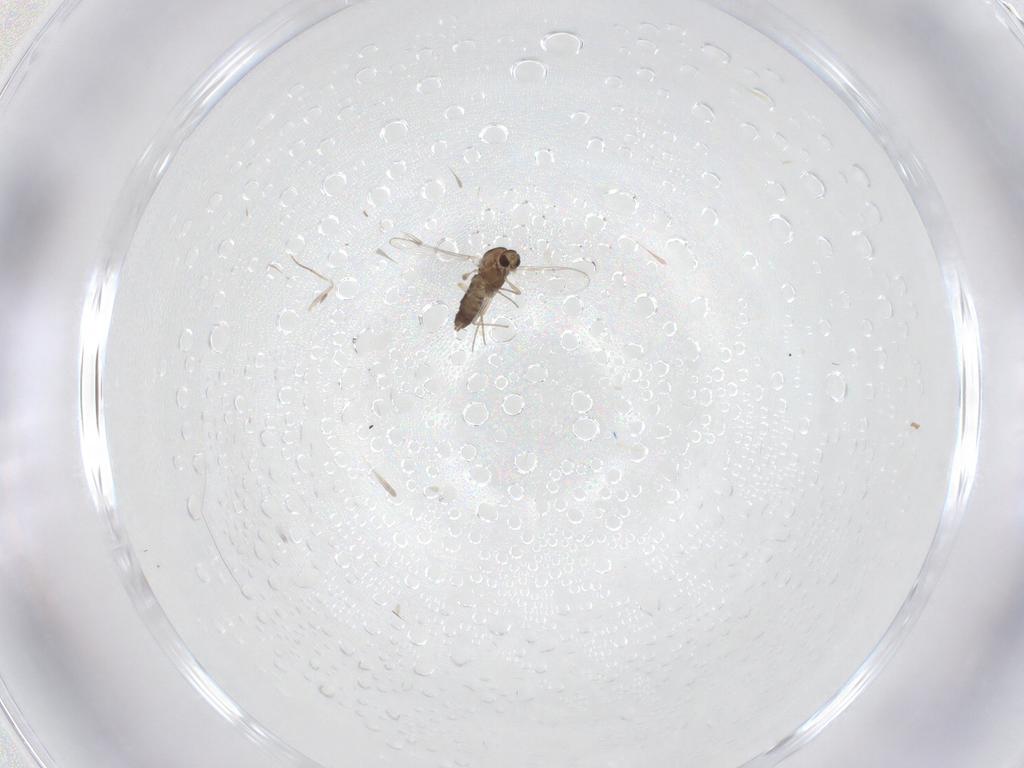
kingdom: Animalia
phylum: Arthropoda
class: Insecta
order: Diptera
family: Chironomidae
